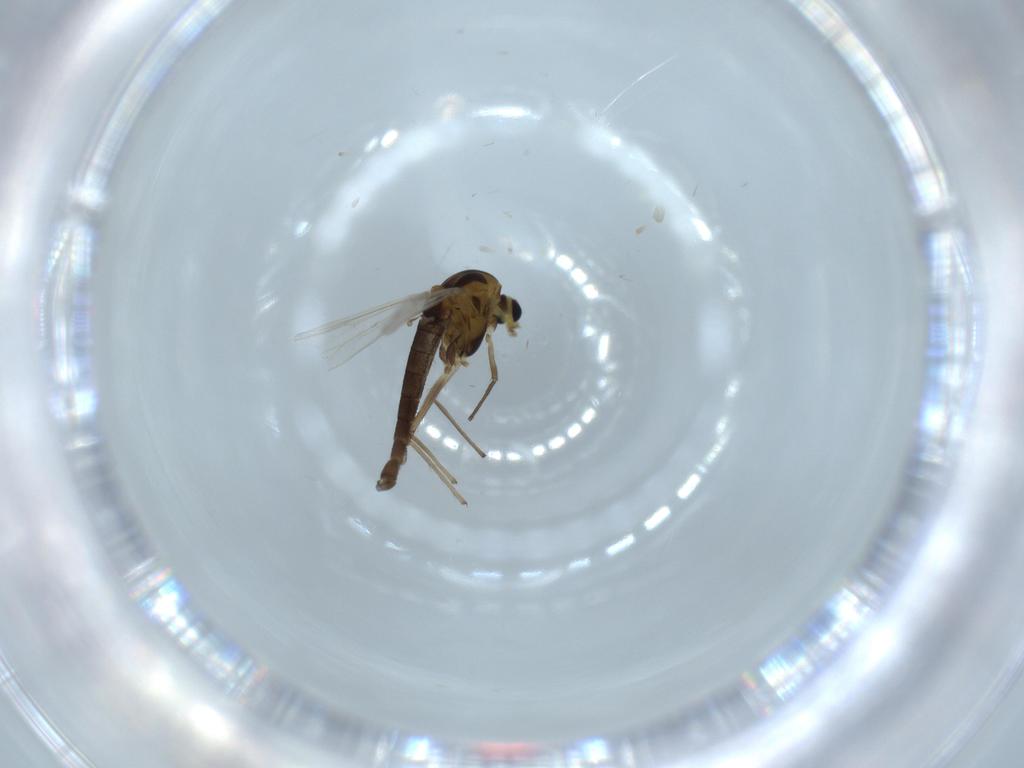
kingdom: Animalia
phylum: Arthropoda
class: Insecta
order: Diptera
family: Chironomidae
